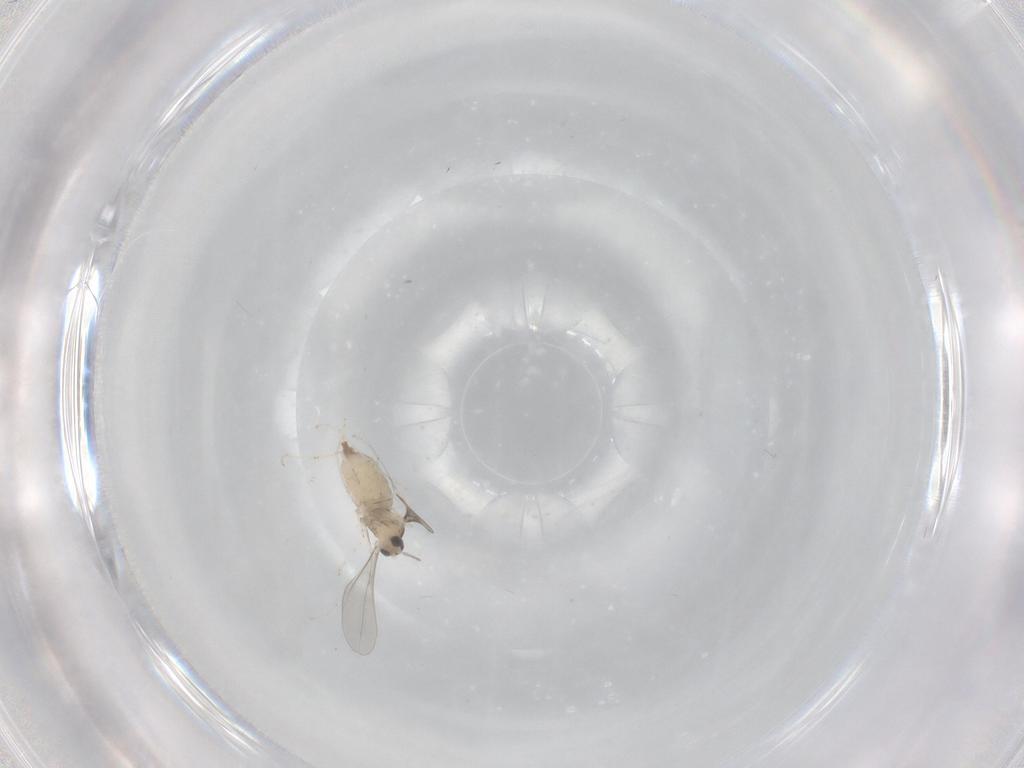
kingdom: Animalia
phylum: Arthropoda
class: Insecta
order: Diptera
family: Cecidomyiidae
